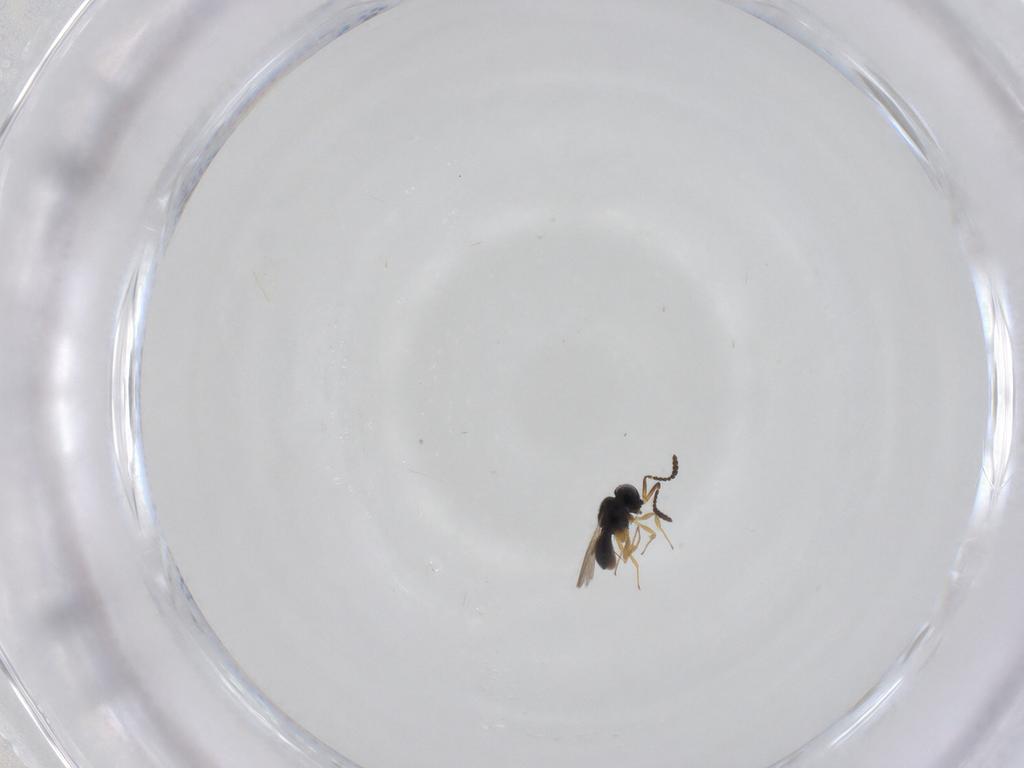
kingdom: Animalia
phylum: Arthropoda
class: Insecta
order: Hymenoptera
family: Scelionidae
